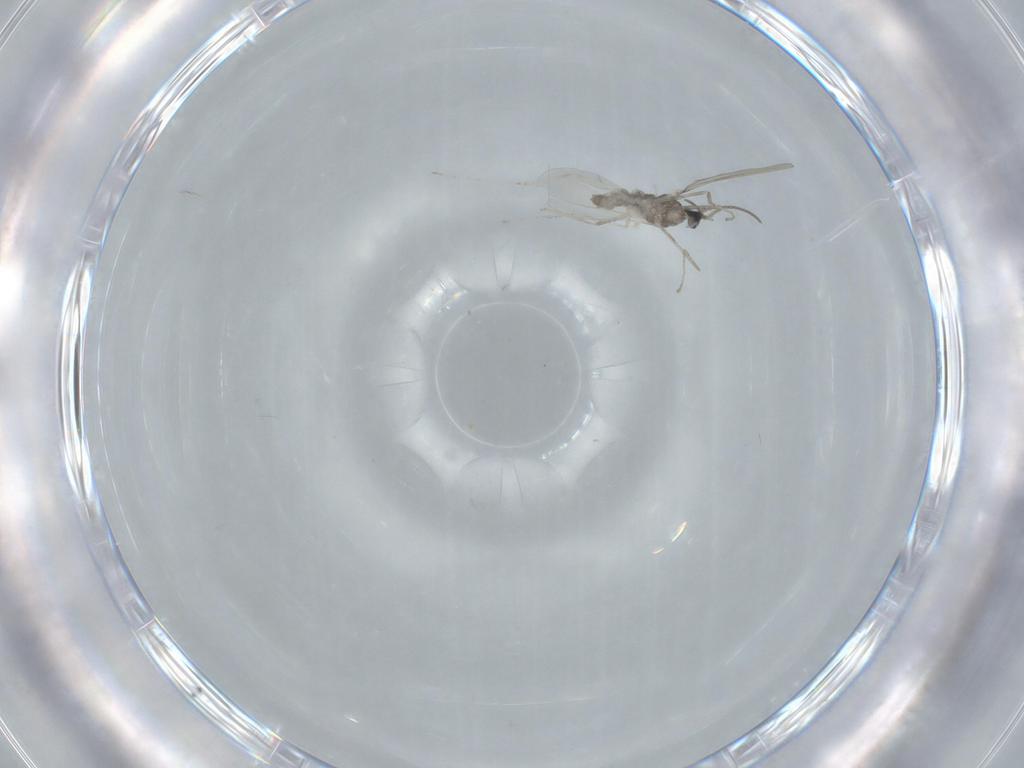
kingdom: Animalia
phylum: Arthropoda
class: Insecta
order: Diptera
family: Cecidomyiidae
